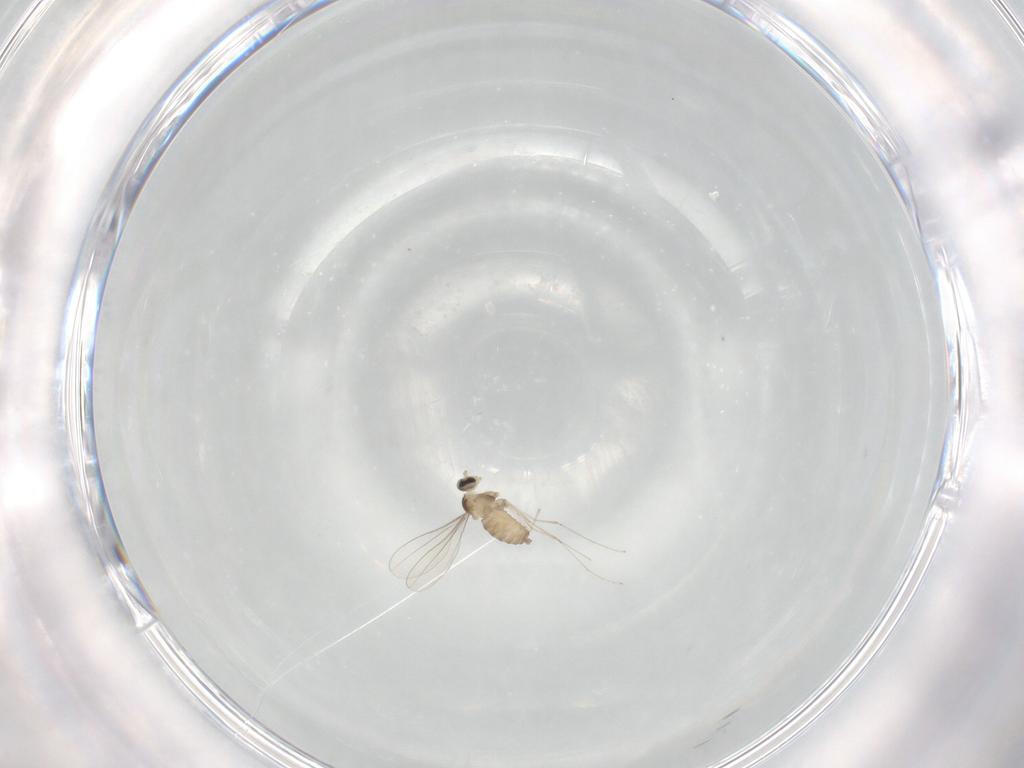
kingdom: Animalia
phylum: Arthropoda
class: Insecta
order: Diptera
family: Cecidomyiidae
